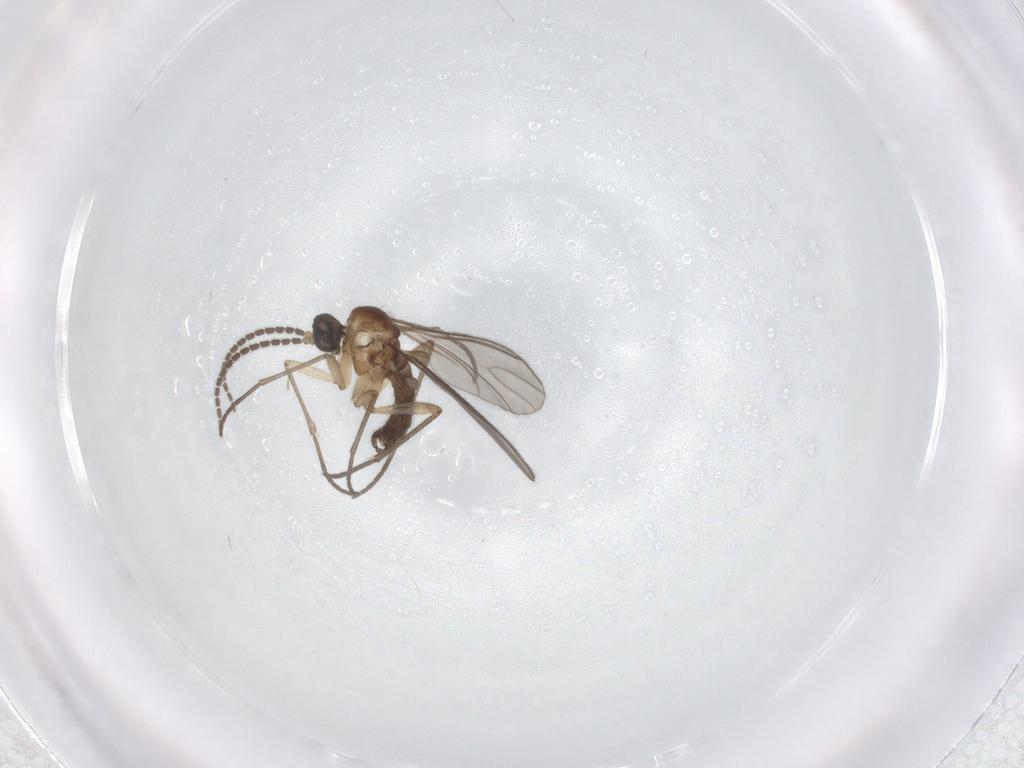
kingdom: Animalia
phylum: Arthropoda
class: Insecta
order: Diptera
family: Sciaridae
